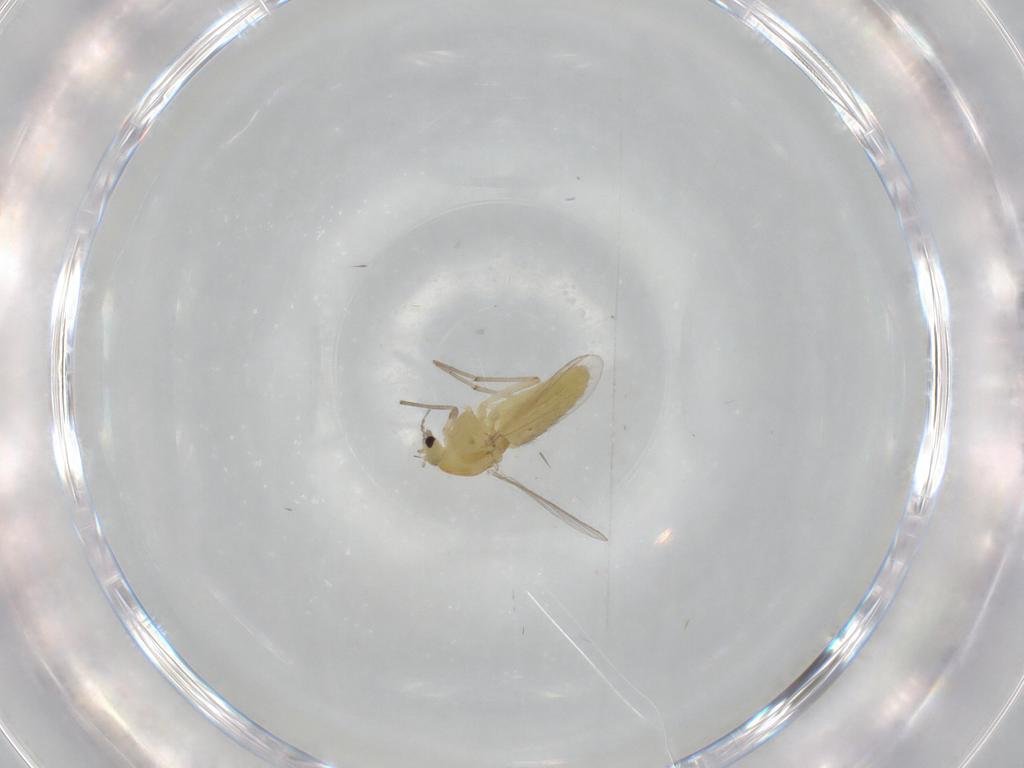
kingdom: Animalia
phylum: Arthropoda
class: Insecta
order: Diptera
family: Chironomidae
